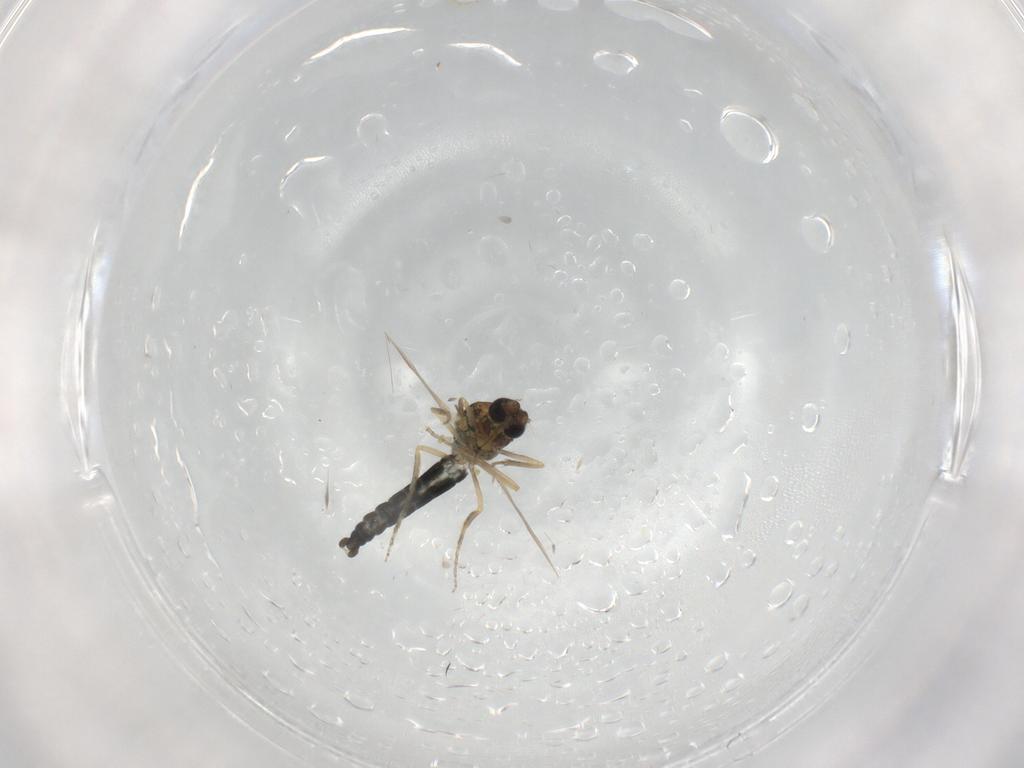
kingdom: Animalia
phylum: Arthropoda
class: Insecta
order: Diptera
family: Ceratopogonidae
